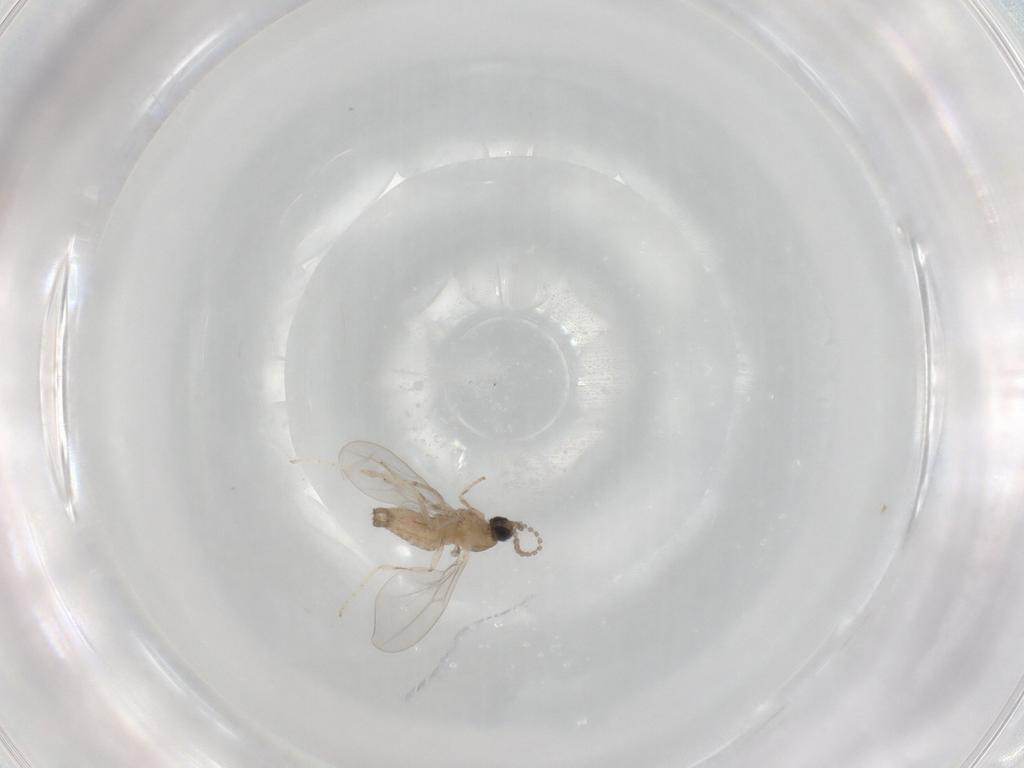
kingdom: Animalia
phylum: Arthropoda
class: Insecta
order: Diptera
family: Cecidomyiidae
